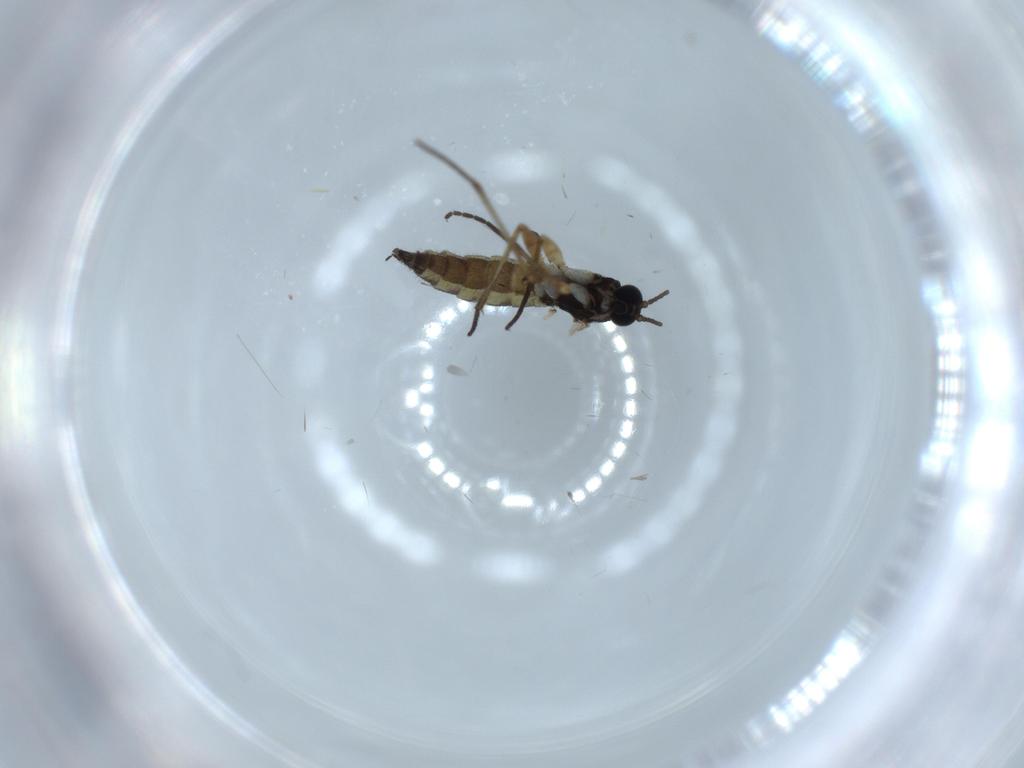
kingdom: Animalia
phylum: Arthropoda
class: Insecta
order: Diptera
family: Sciaridae
